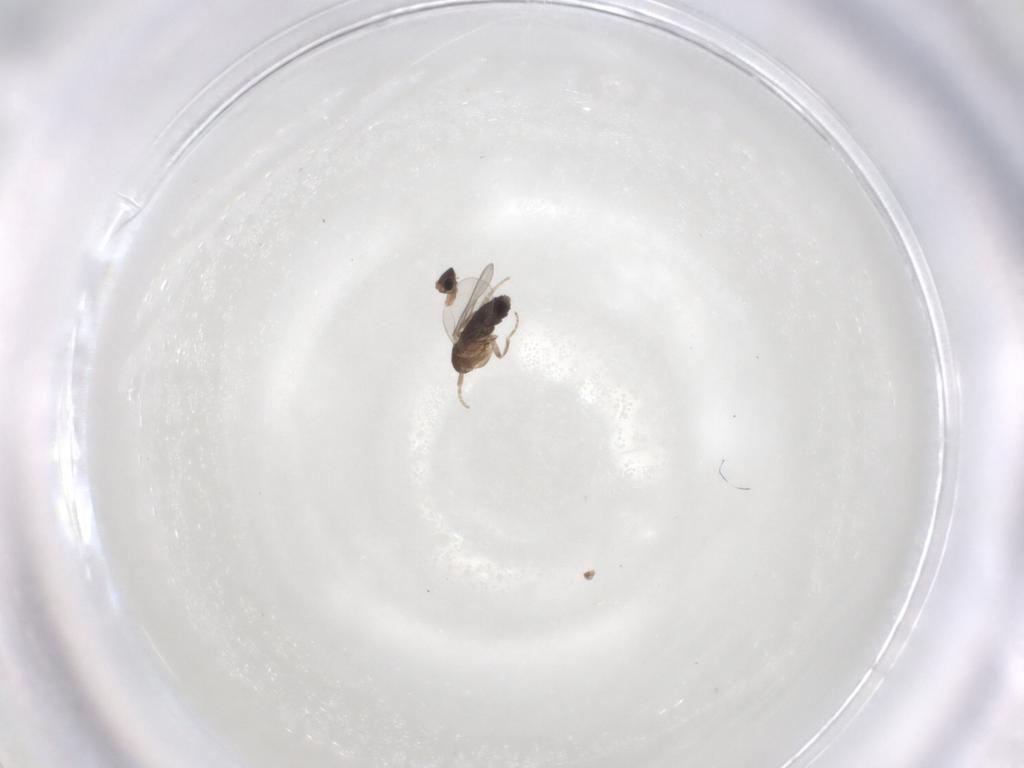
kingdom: Animalia
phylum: Arthropoda
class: Insecta
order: Diptera
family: Phoridae
